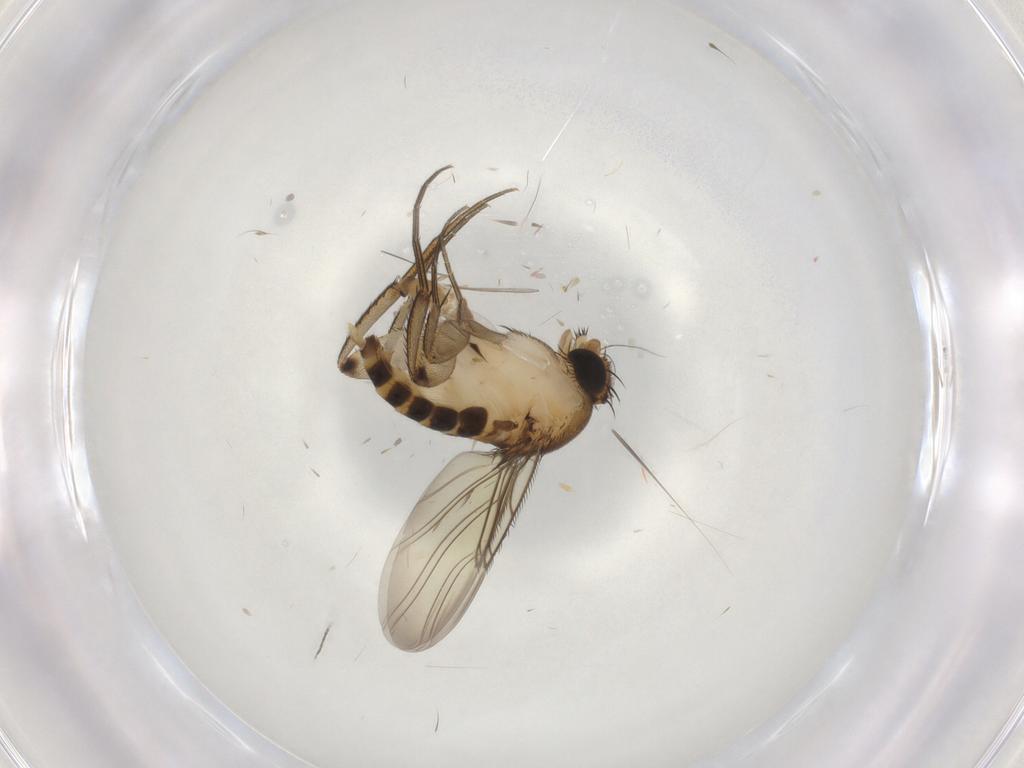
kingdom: Animalia
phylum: Arthropoda
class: Insecta
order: Diptera
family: Phoridae
